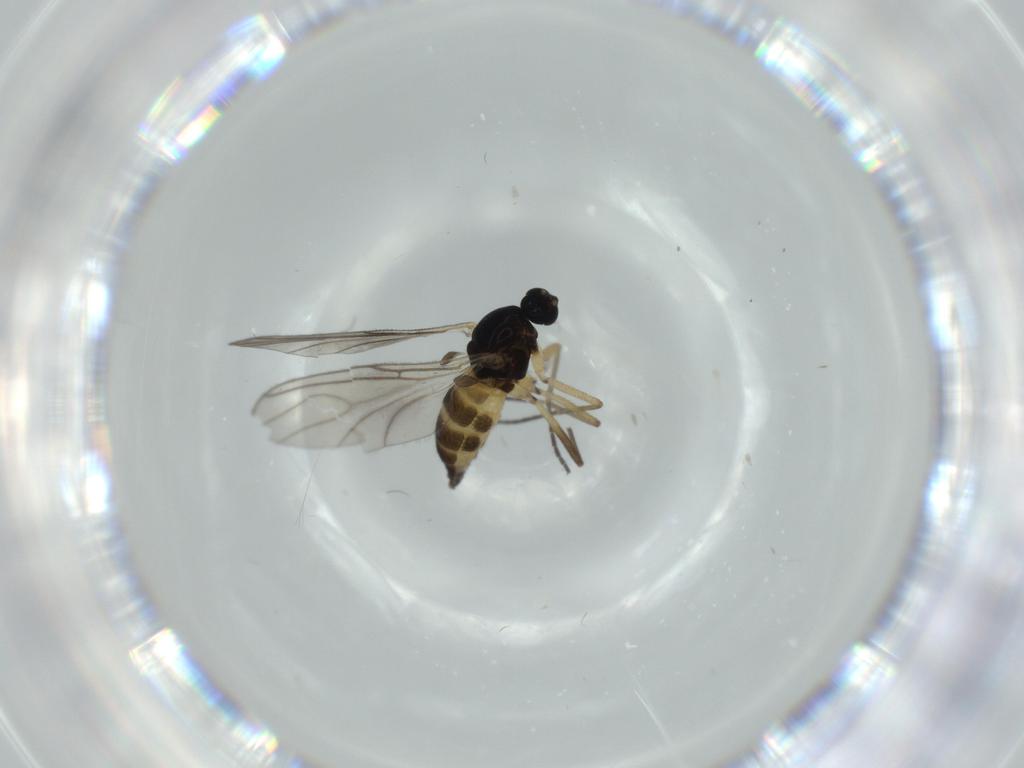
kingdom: Animalia
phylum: Arthropoda
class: Insecta
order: Diptera
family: Sciaridae
